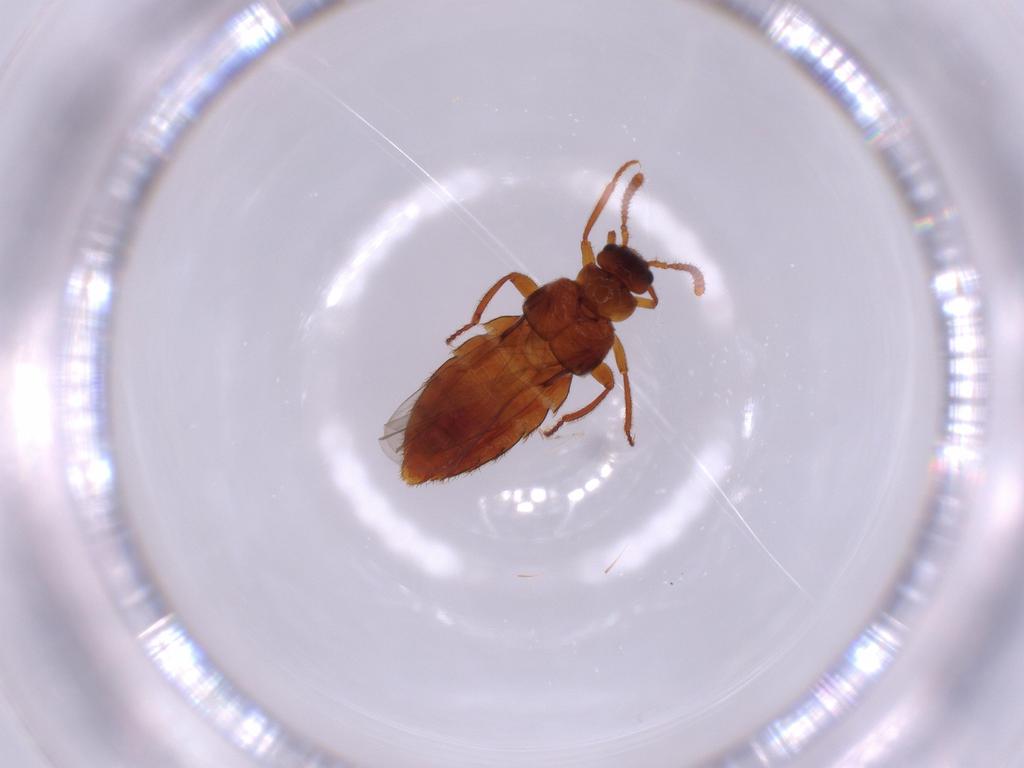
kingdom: Animalia
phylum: Arthropoda
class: Insecta
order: Coleoptera
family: Staphylinidae
